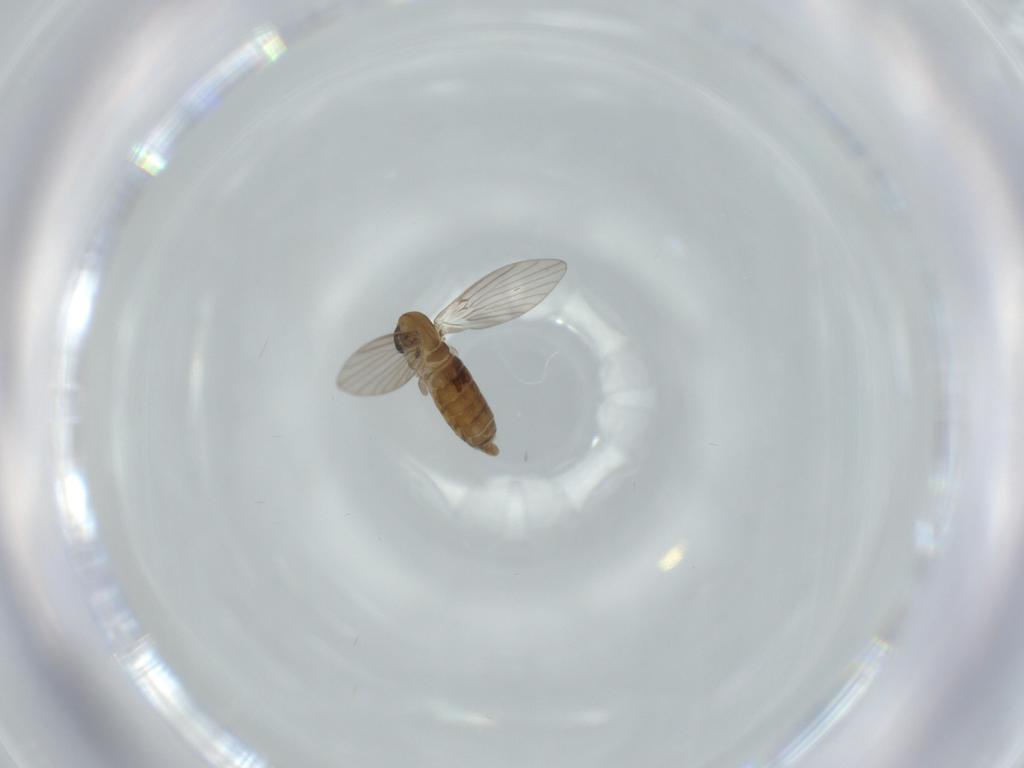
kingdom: Animalia
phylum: Arthropoda
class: Insecta
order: Diptera
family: Psychodidae
